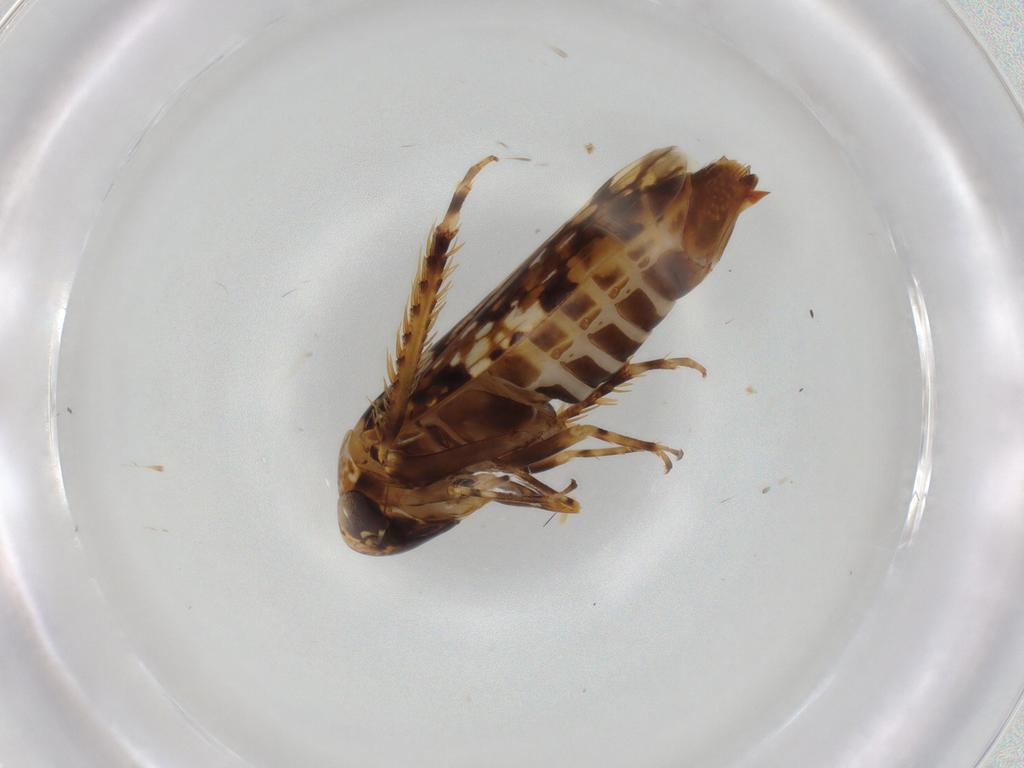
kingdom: Animalia
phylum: Arthropoda
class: Insecta
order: Hemiptera
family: Cicadellidae
